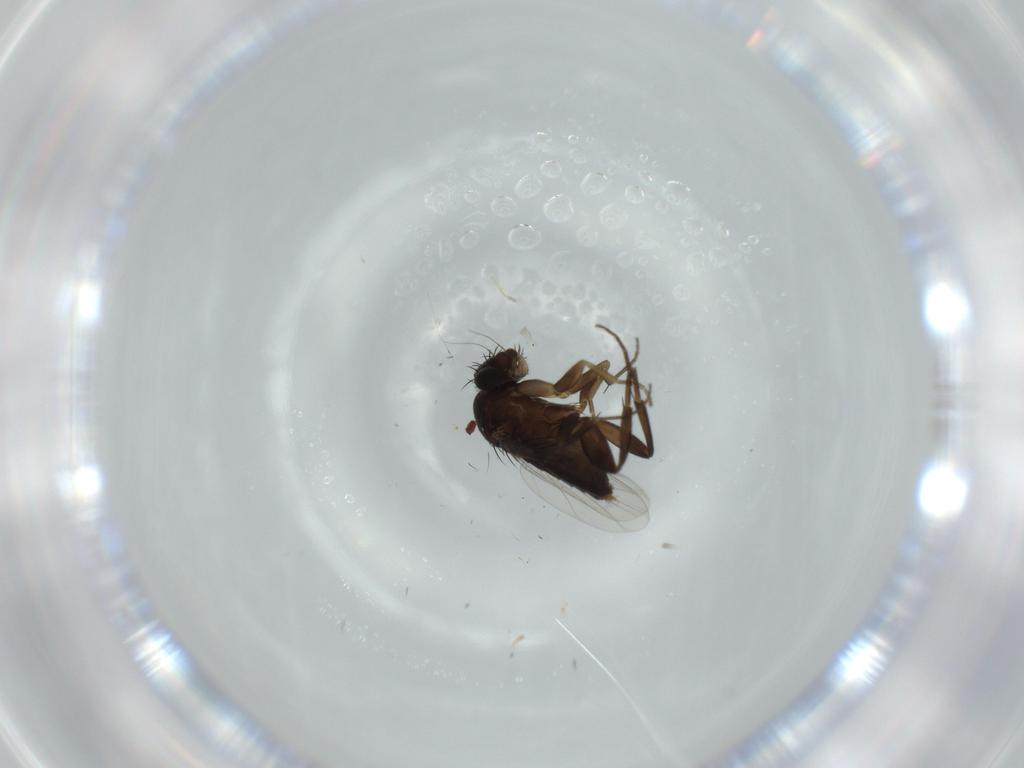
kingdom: Animalia
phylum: Arthropoda
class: Insecta
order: Diptera
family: Phoridae
